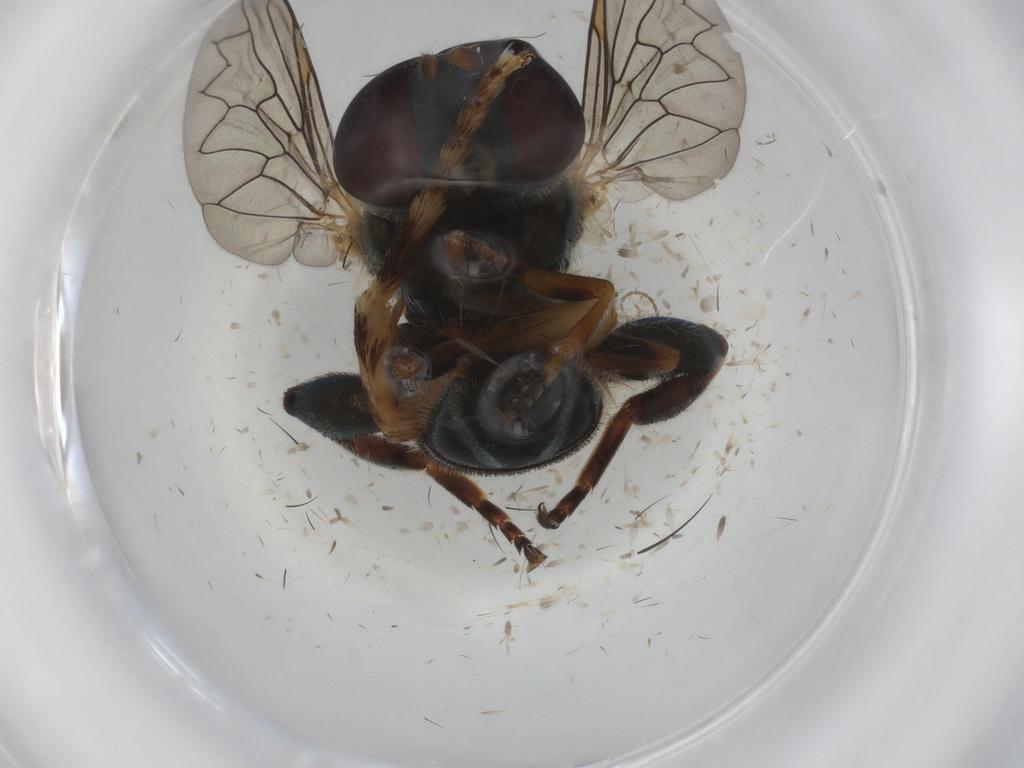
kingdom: Animalia
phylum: Arthropoda
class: Insecta
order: Diptera
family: Syrphidae
